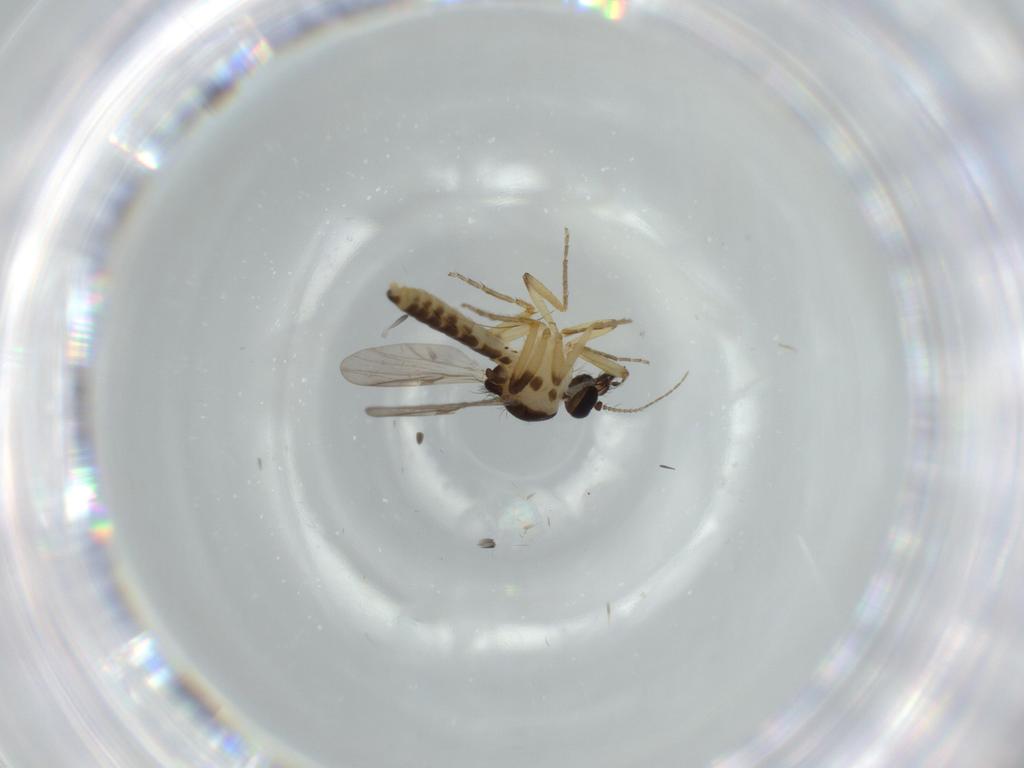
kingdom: Animalia
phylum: Arthropoda
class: Insecta
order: Diptera
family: Ceratopogonidae
